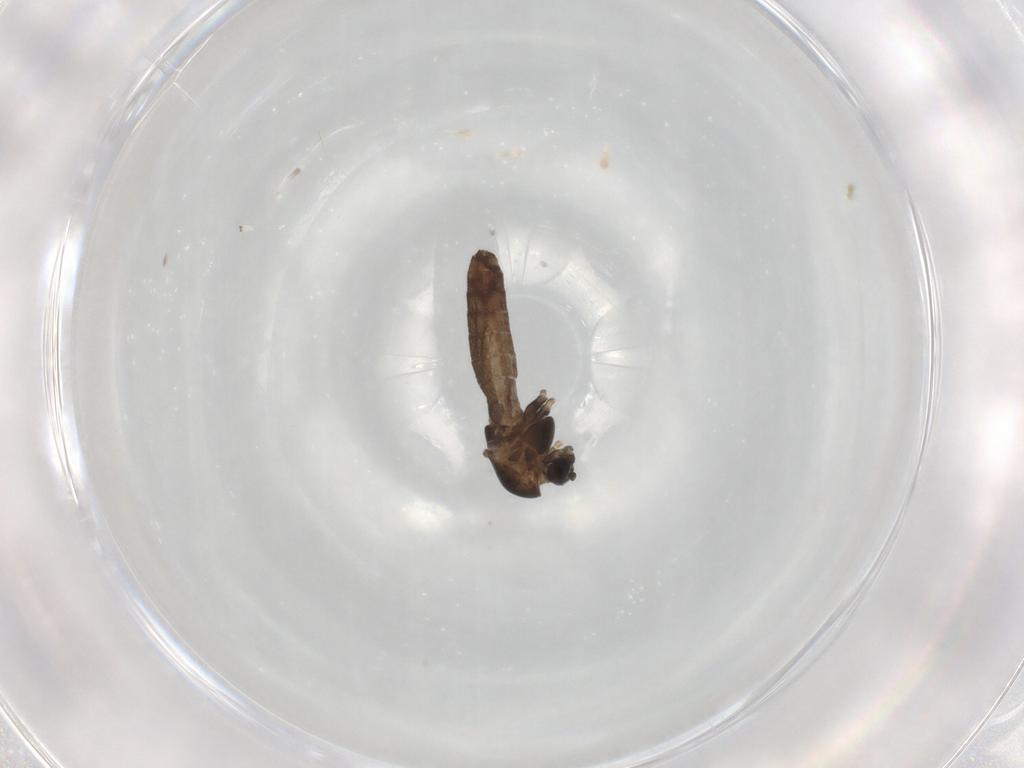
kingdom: Animalia
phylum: Arthropoda
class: Insecta
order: Diptera
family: Chironomidae
